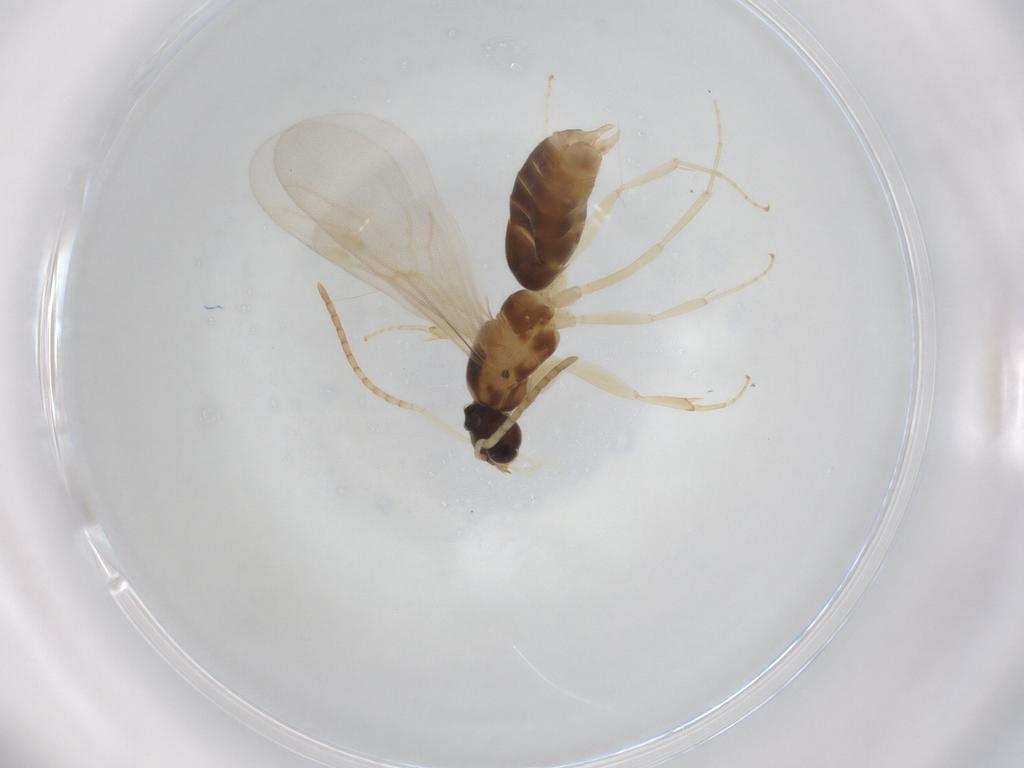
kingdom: Animalia
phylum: Arthropoda
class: Insecta
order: Hymenoptera
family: Formicidae
